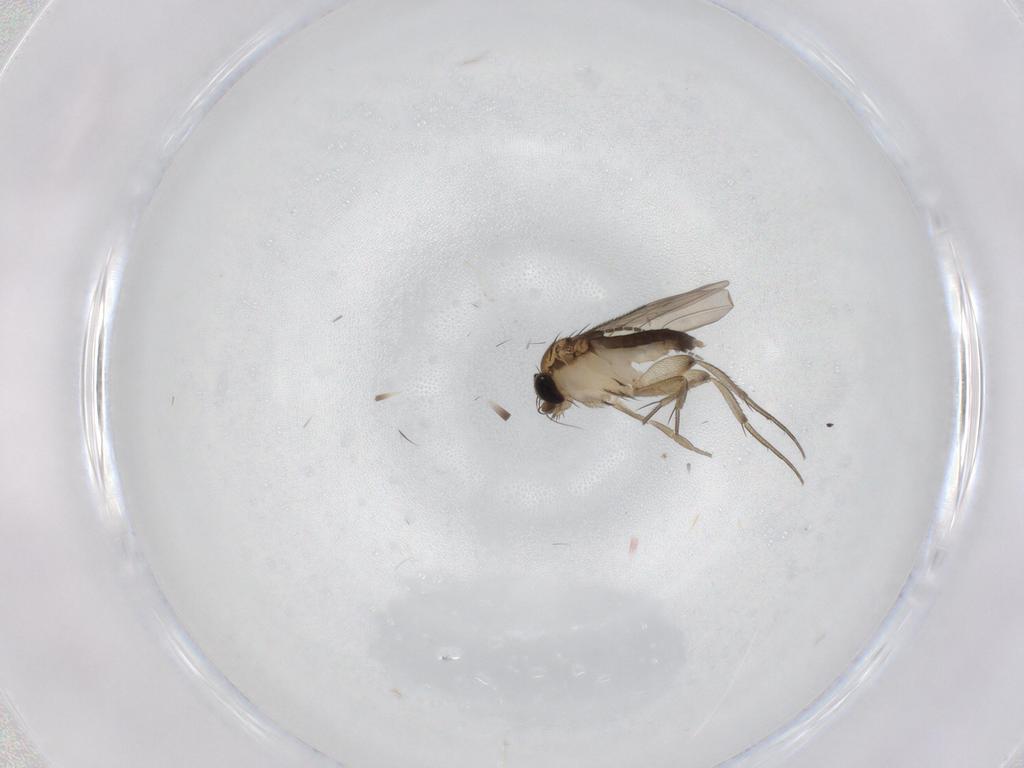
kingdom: Animalia
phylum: Arthropoda
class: Insecta
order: Diptera
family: Phoridae
